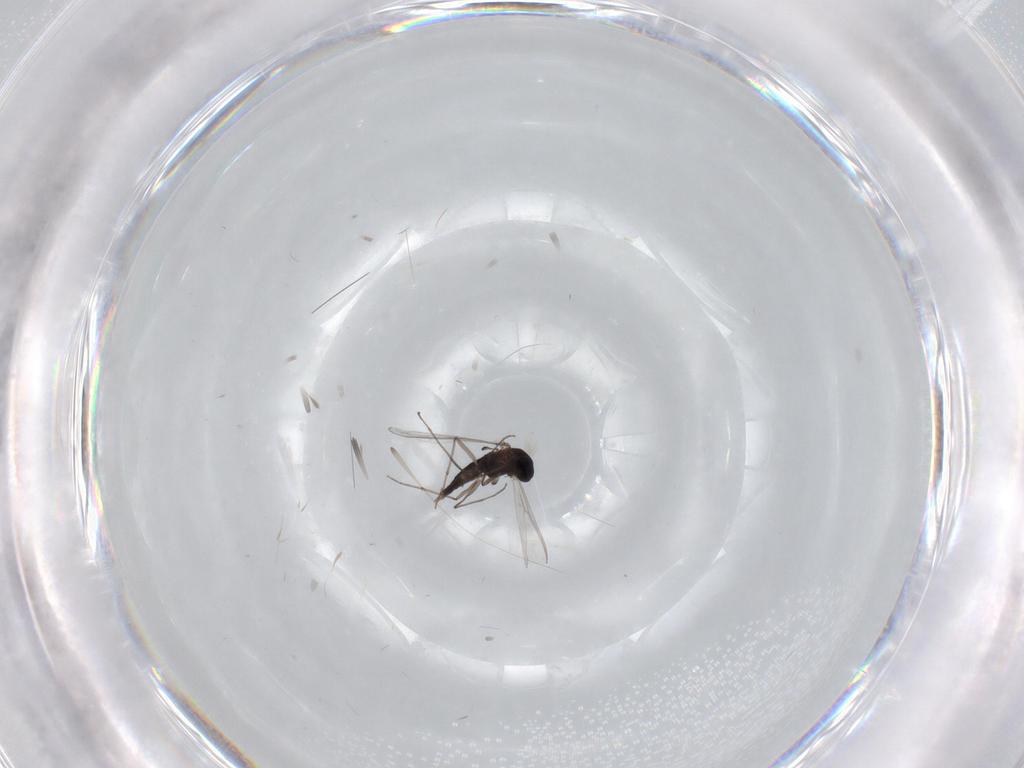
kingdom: Animalia
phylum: Arthropoda
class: Insecta
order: Diptera
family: Chironomidae
